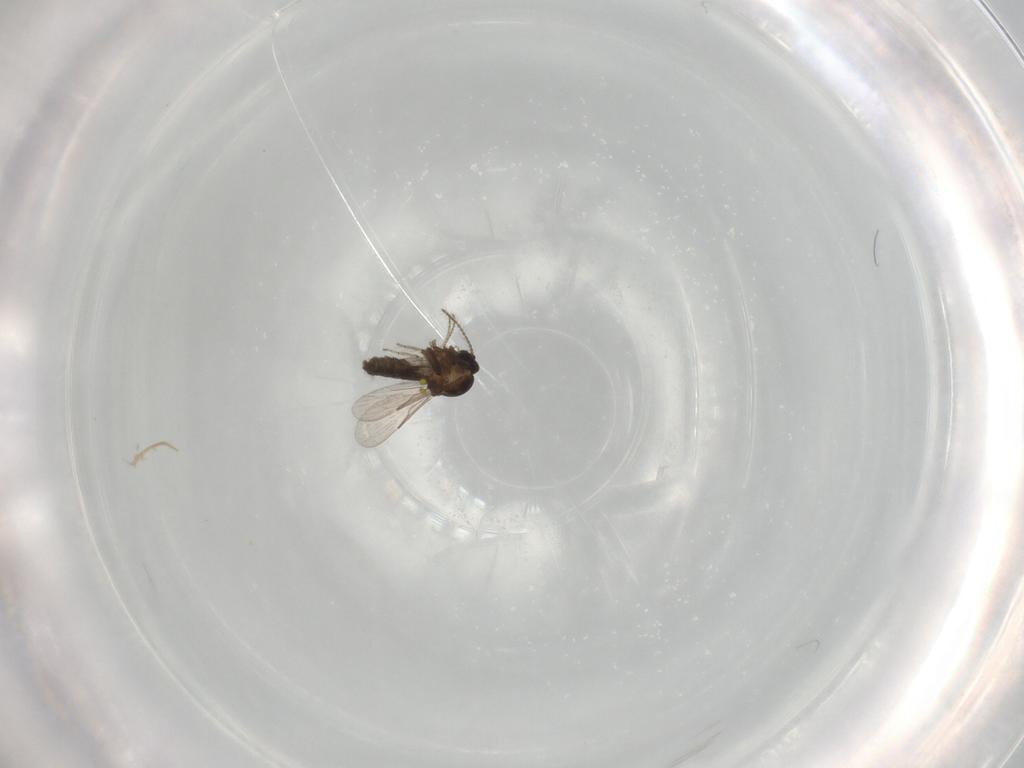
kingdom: Animalia
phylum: Arthropoda
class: Insecta
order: Diptera
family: Ceratopogonidae
